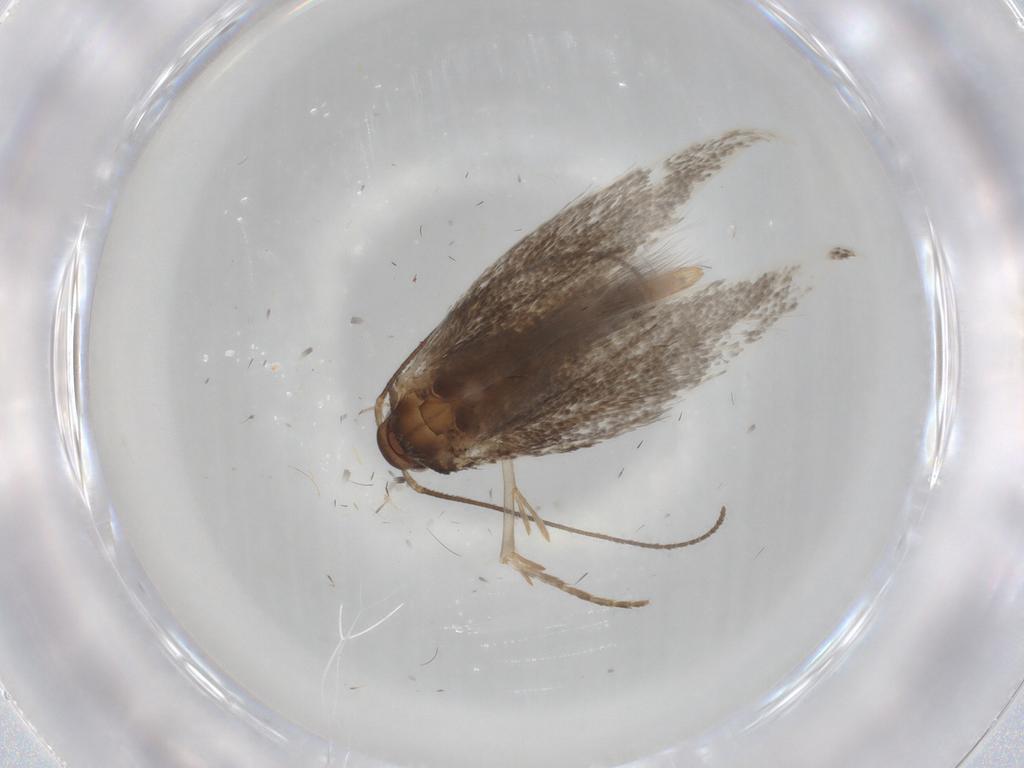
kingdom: Animalia
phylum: Arthropoda
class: Insecta
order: Lepidoptera
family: Elachistidae
